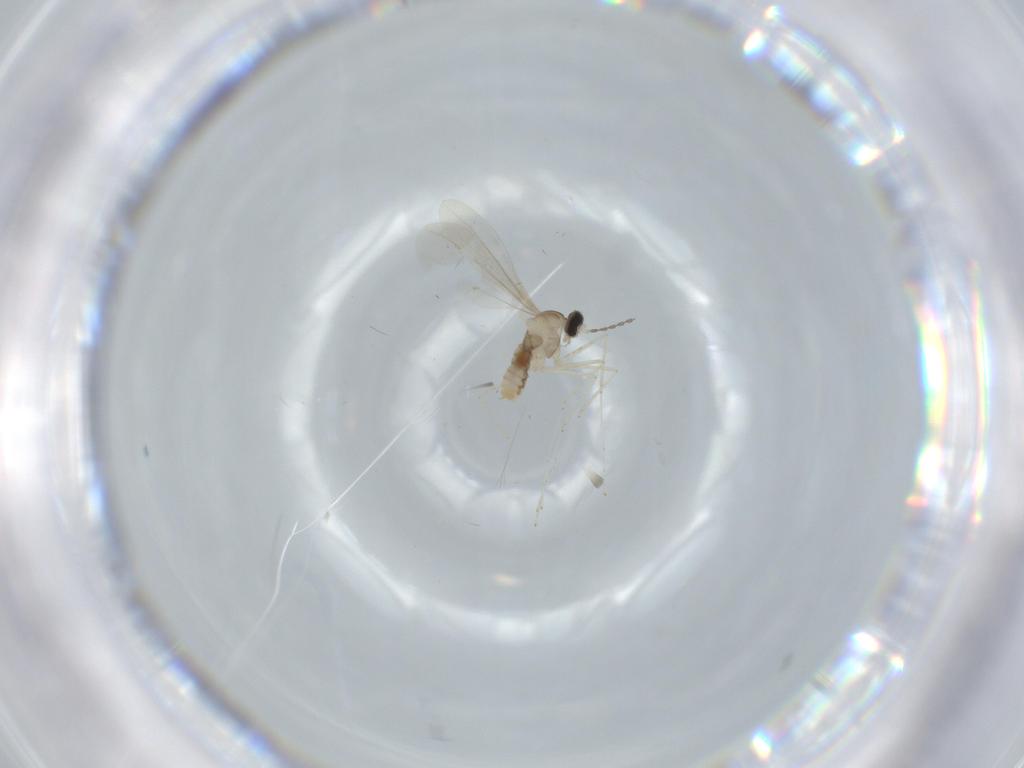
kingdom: Animalia
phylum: Arthropoda
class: Insecta
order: Diptera
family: Cecidomyiidae
